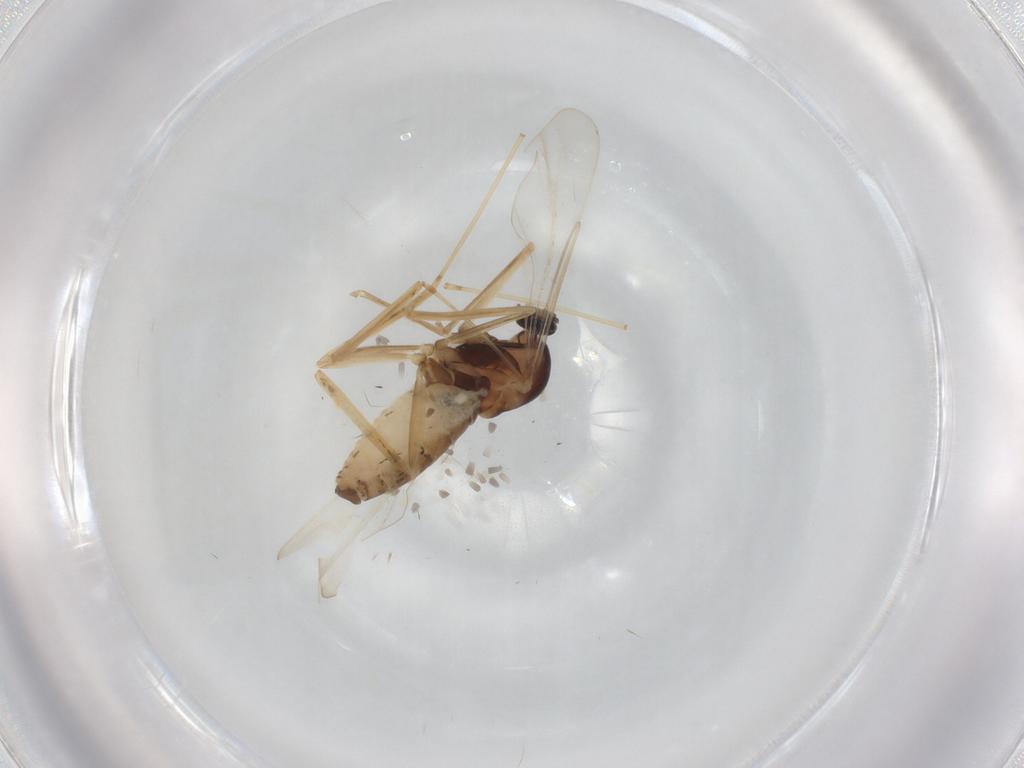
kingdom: Animalia
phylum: Arthropoda
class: Insecta
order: Diptera
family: Cecidomyiidae
